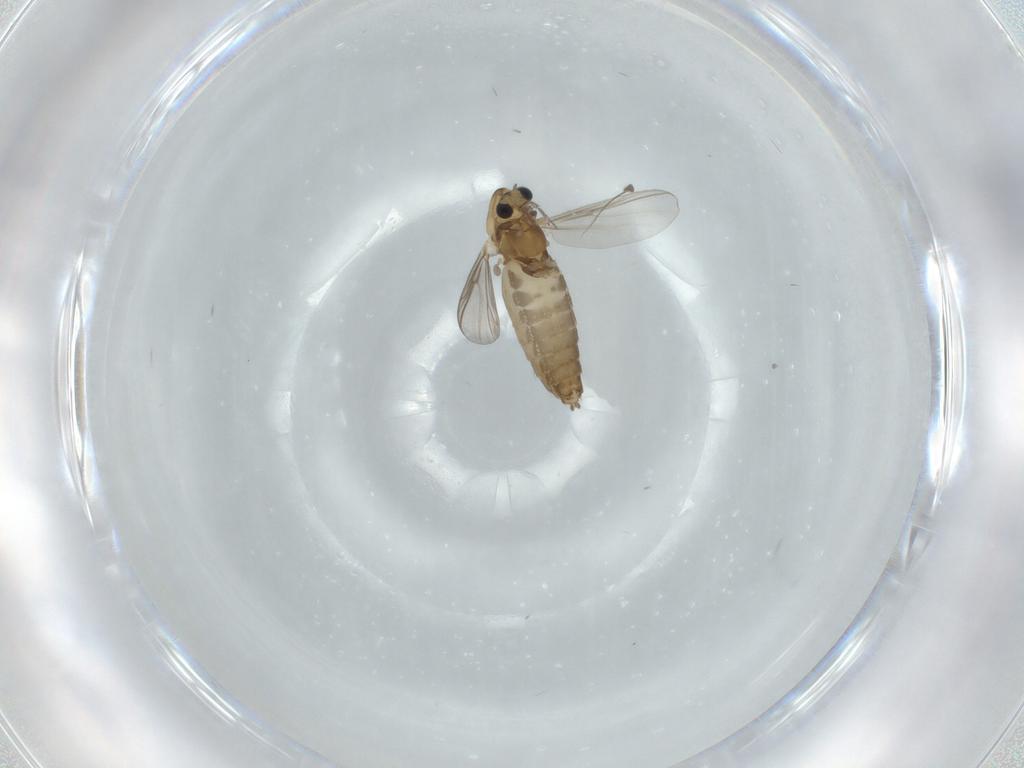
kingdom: Animalia
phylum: Arthropoda
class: Insecta
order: Diptera
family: Chironomidae
